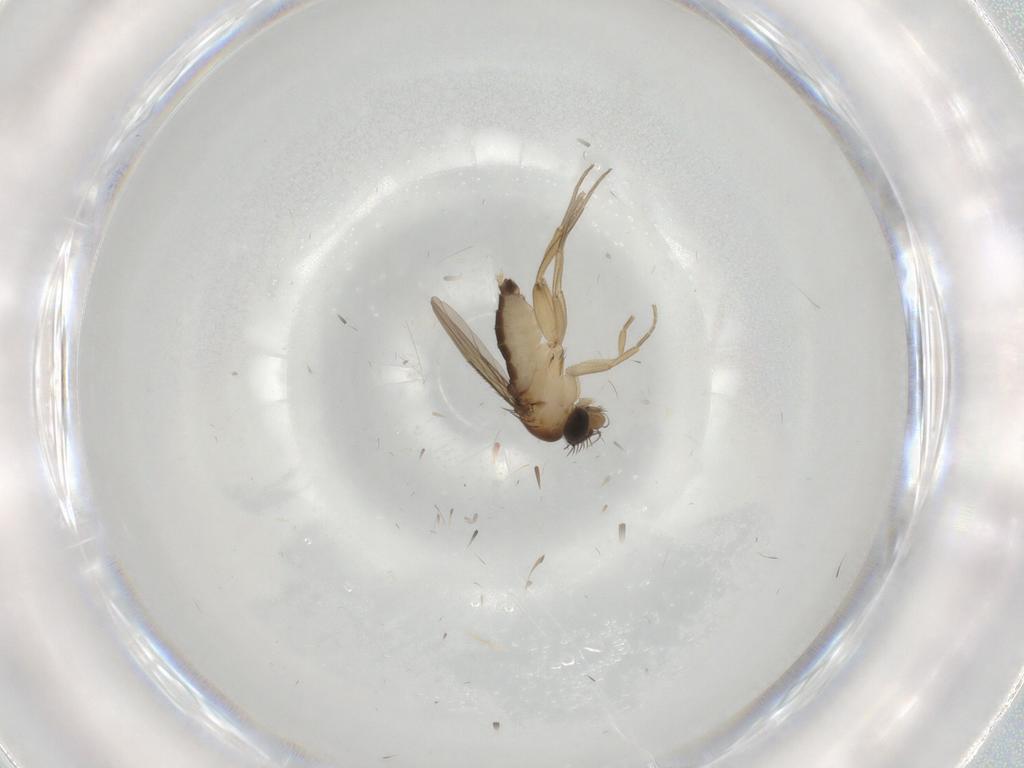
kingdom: Animalia
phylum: Arthropoda
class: Insecta
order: Diptera
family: Phoridae
